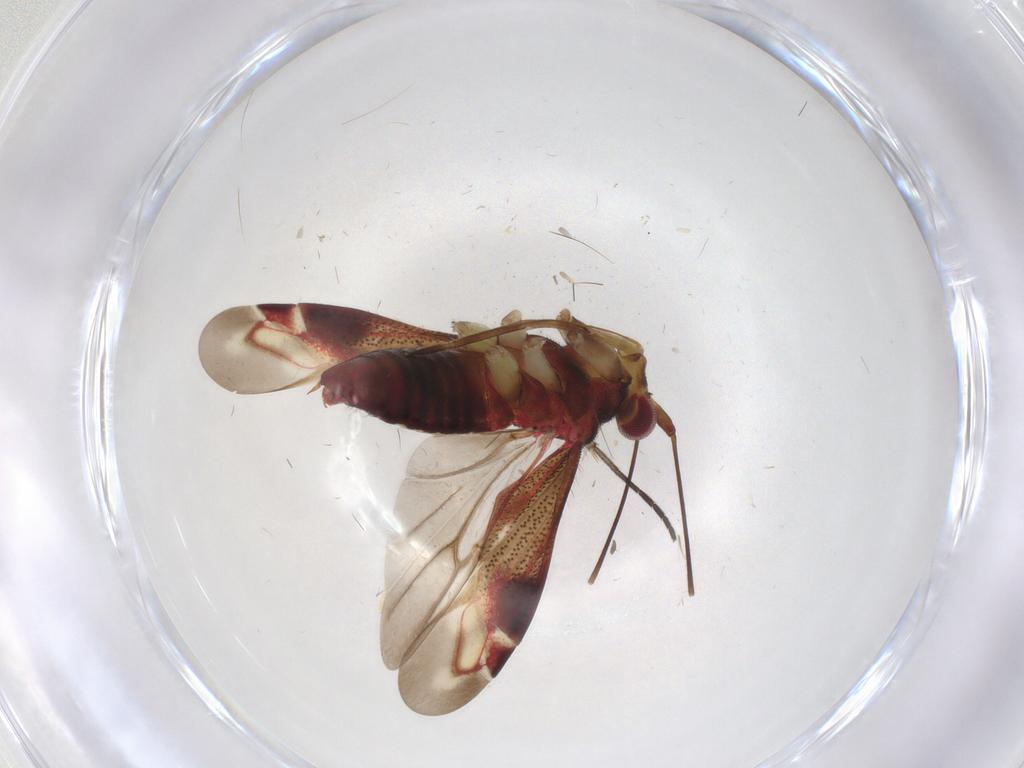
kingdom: Animalia
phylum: Arthropoda
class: Insecta
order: Hemiptera
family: Miridae
